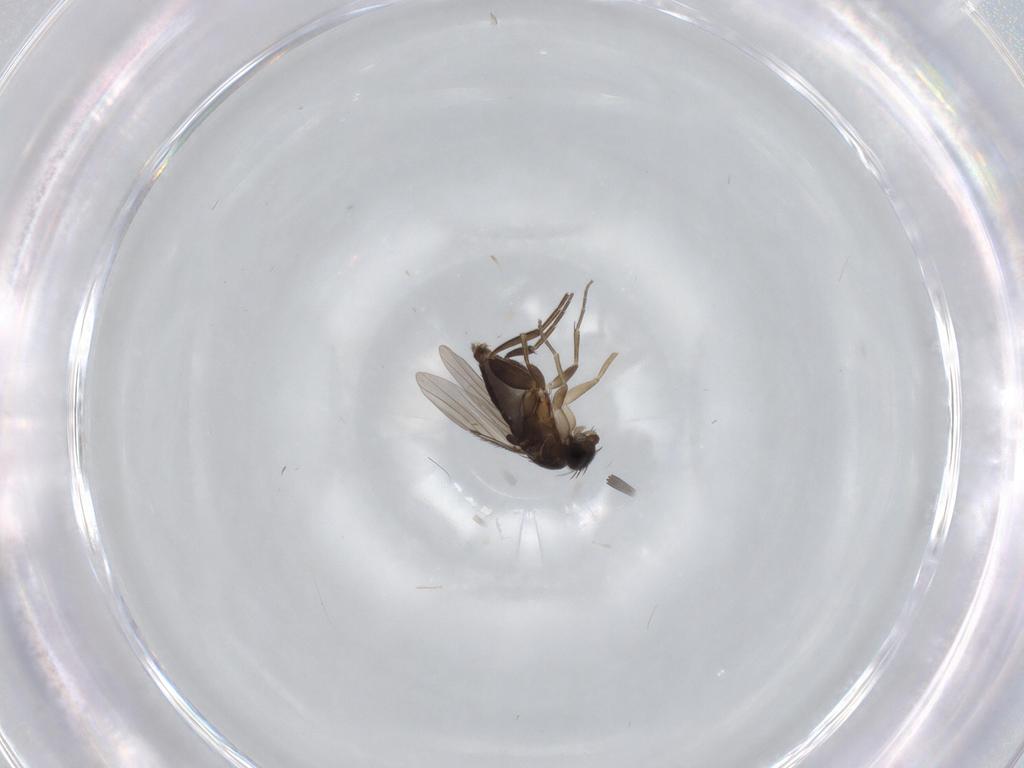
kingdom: Animalia
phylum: Arthropoda
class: Insecta
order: Diptera
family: Phoridae
